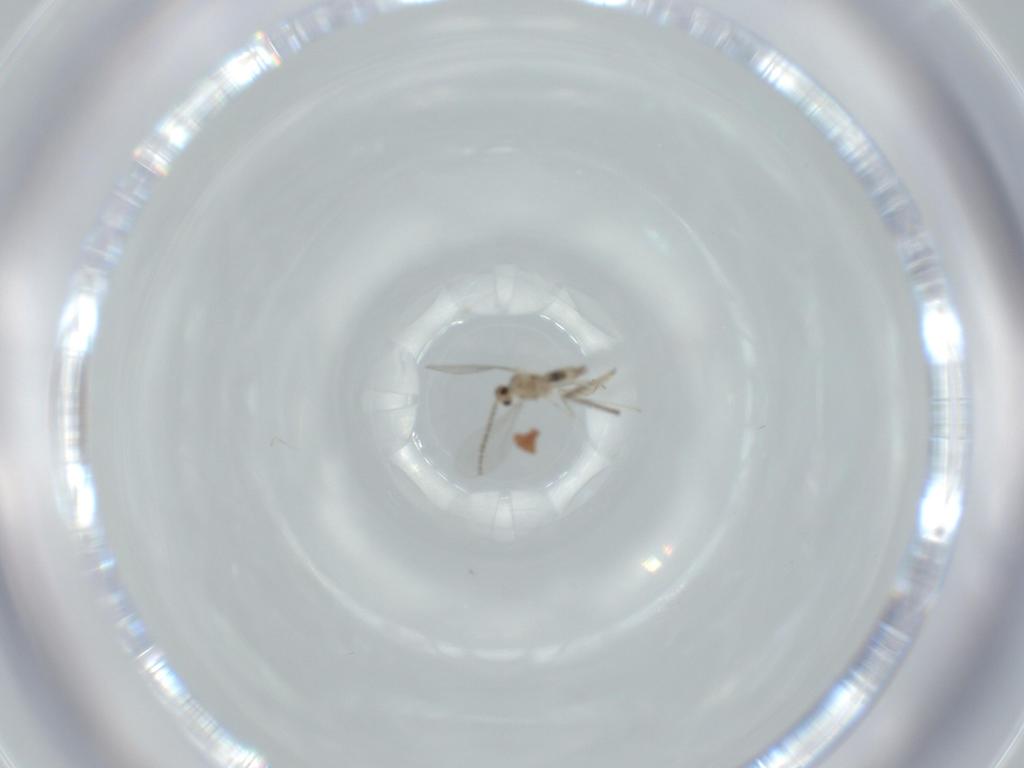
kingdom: Animalia
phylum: Arthropoda
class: Insecta
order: Diptera
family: Cecidomyiidae
